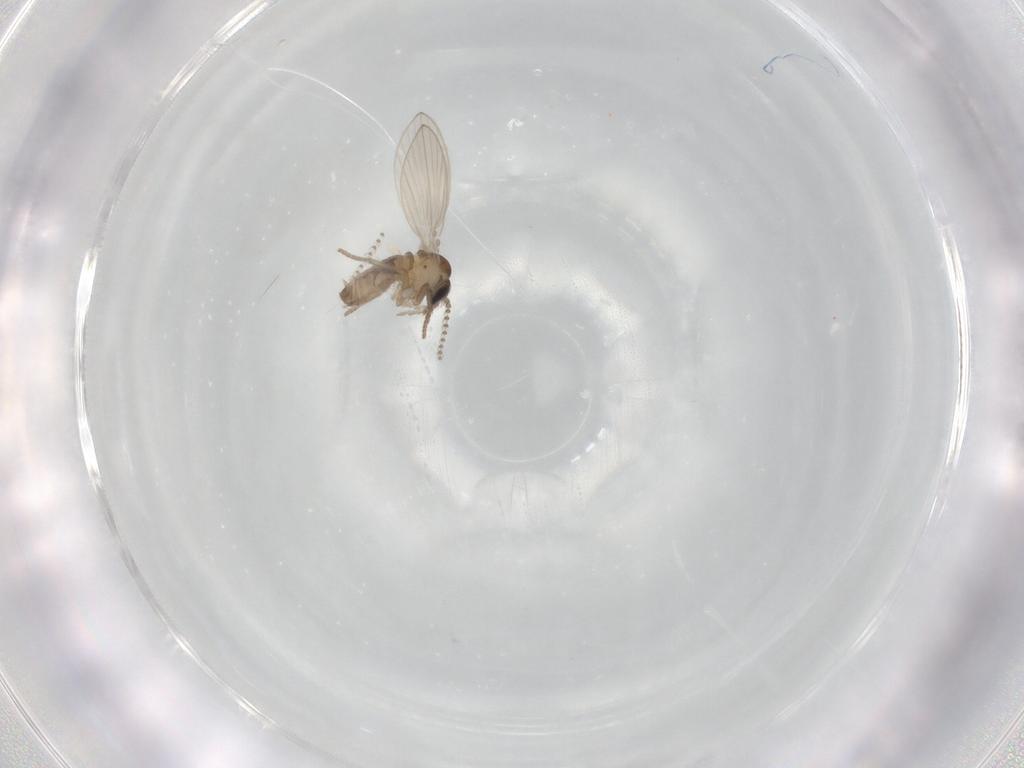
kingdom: Animalia
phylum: Arthropoda
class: Insecta
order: Diptera
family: Psychodidae
